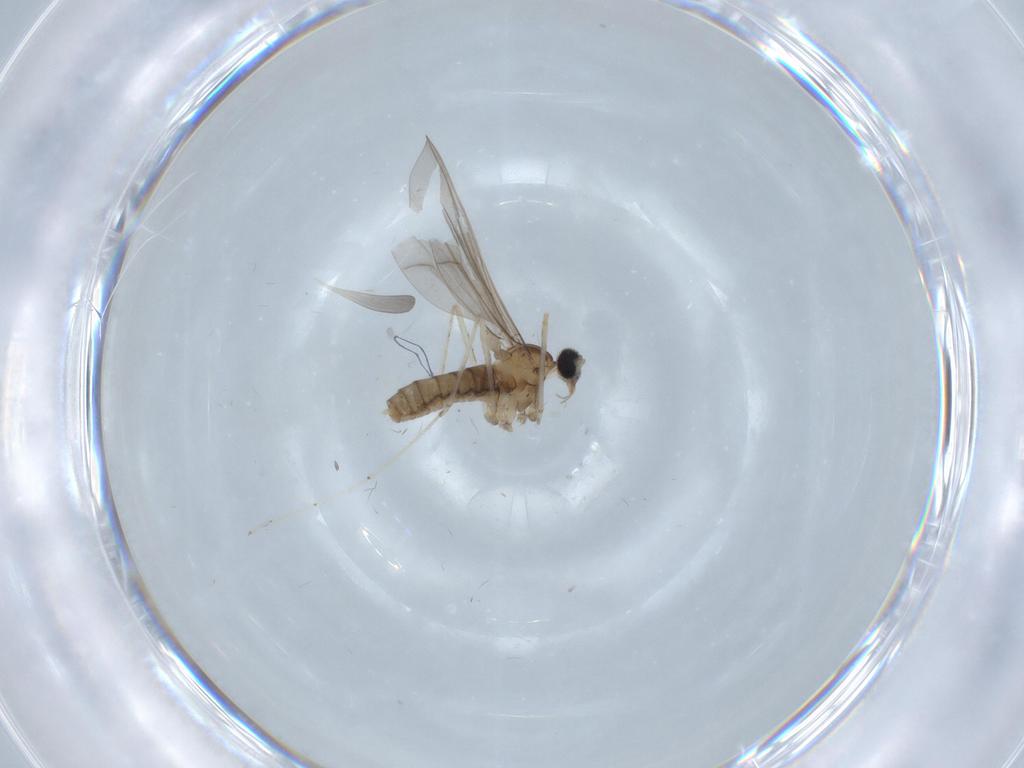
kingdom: Animalia
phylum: Arthropoda
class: Insecta
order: Diptera
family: Cecidomyiidae
